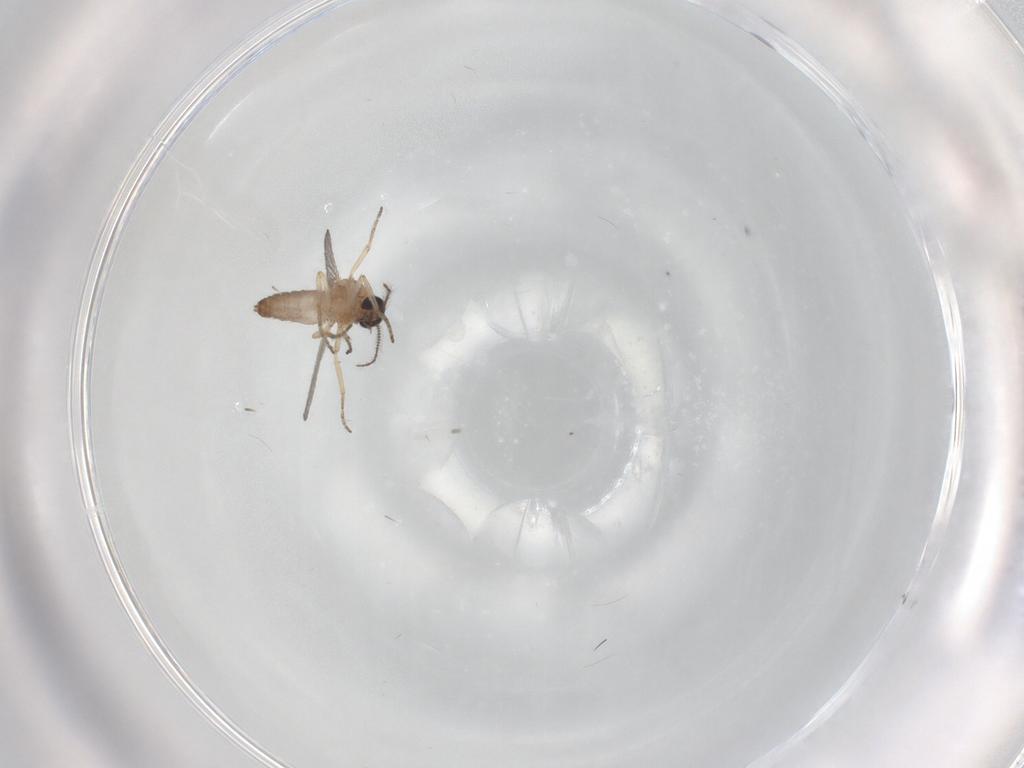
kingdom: Animalia
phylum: Arthropoda
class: Insecta
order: Diptera
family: Ceratopogonidae
